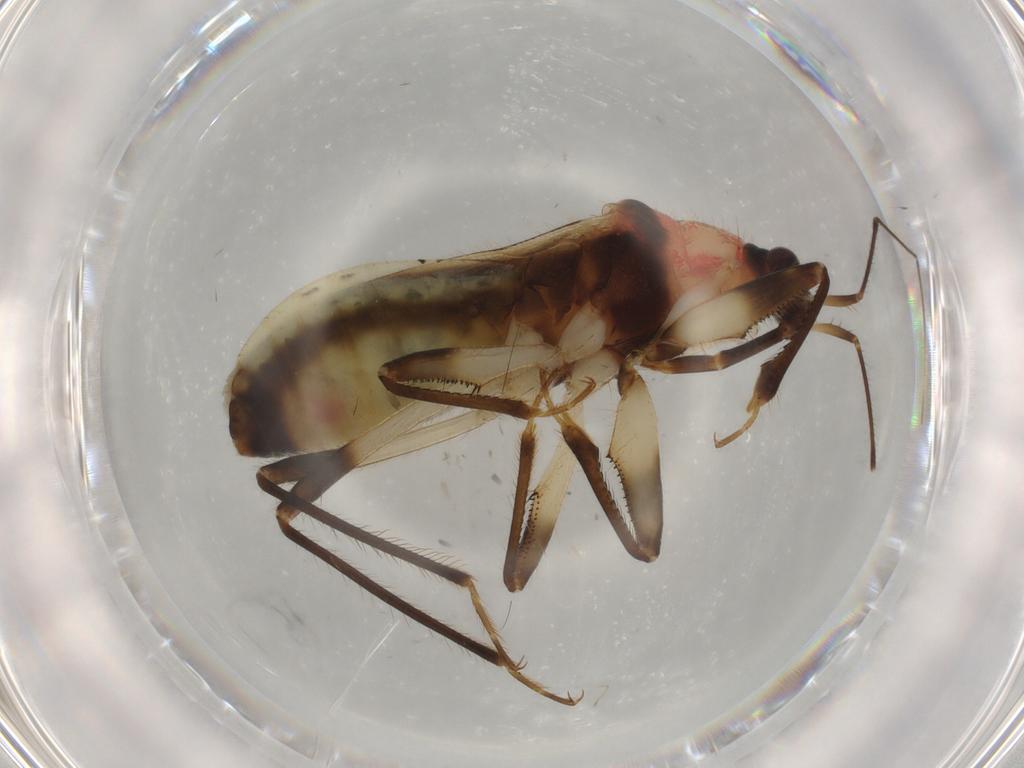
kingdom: Animalia
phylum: Arthropoda
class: Insecta
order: Hemiptera
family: Nabidae
